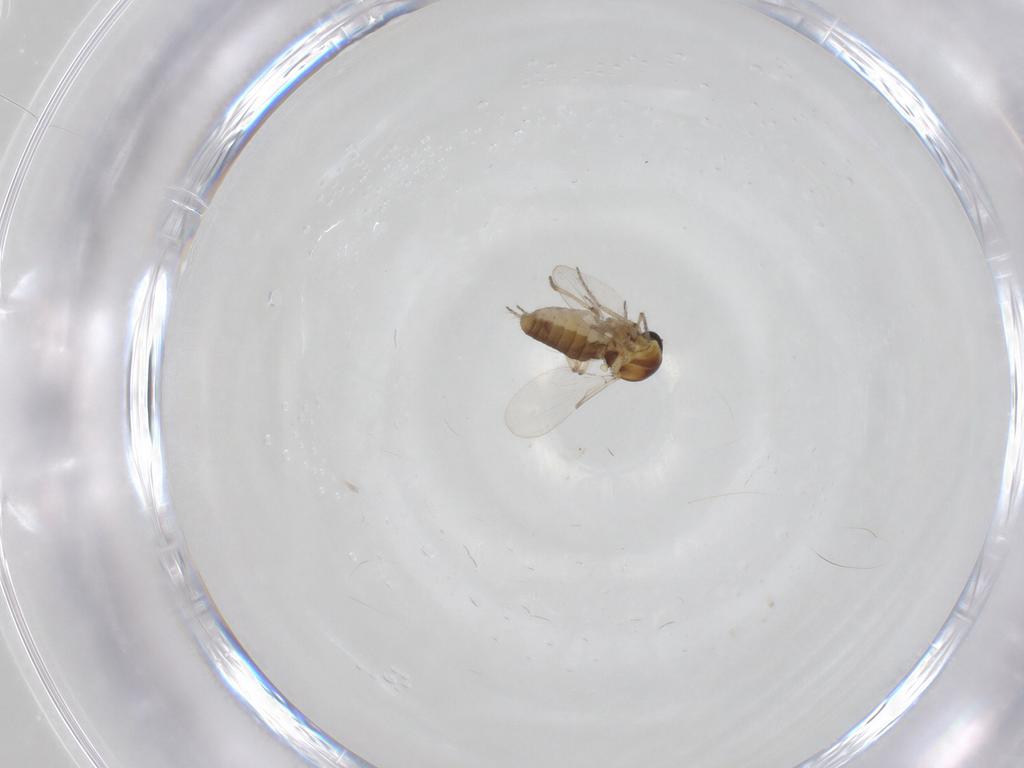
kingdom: Animalia
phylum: Arthropoda
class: Insecta
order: Diptera
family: Ceratopogonidae
